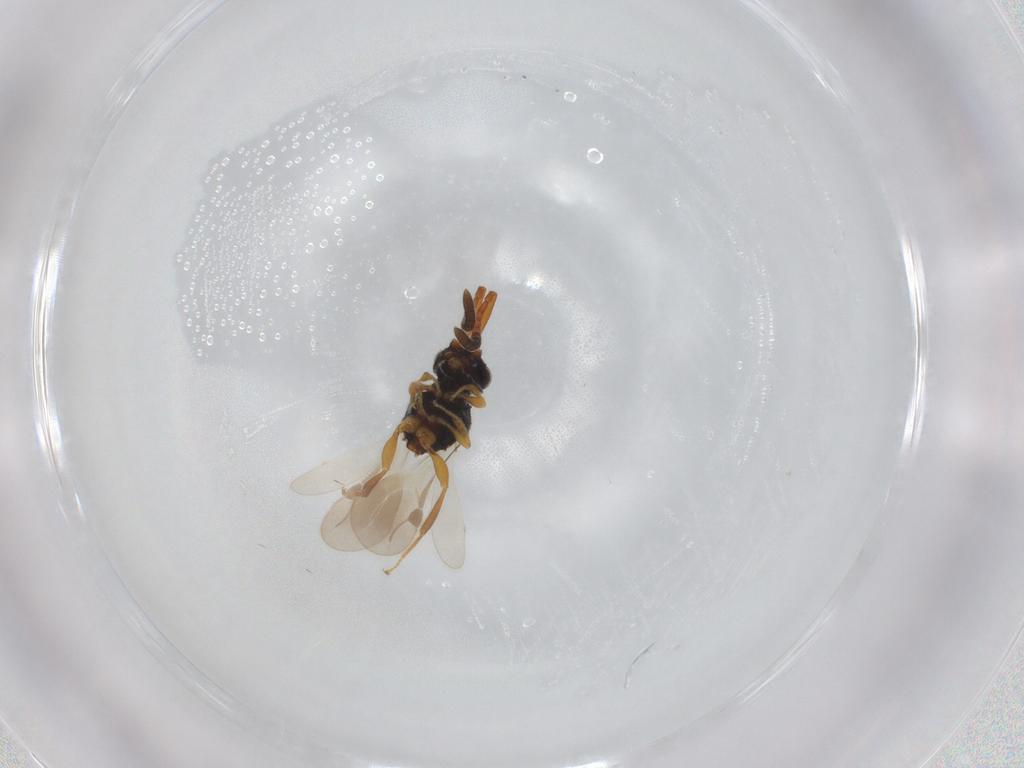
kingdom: Animalia
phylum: Arthropoda
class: Insecta
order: Hymenoptera
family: Megaspilidae
